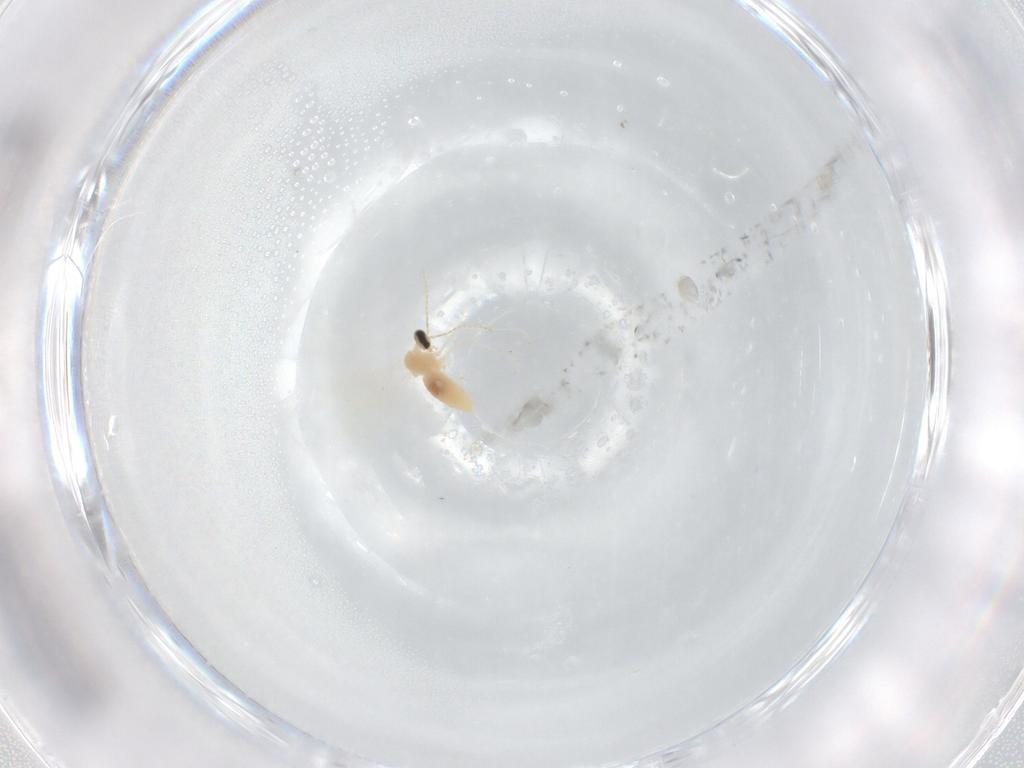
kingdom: Animalia
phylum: Arthropoda
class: Insecta
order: Diptera
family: Cecidomyiidae
